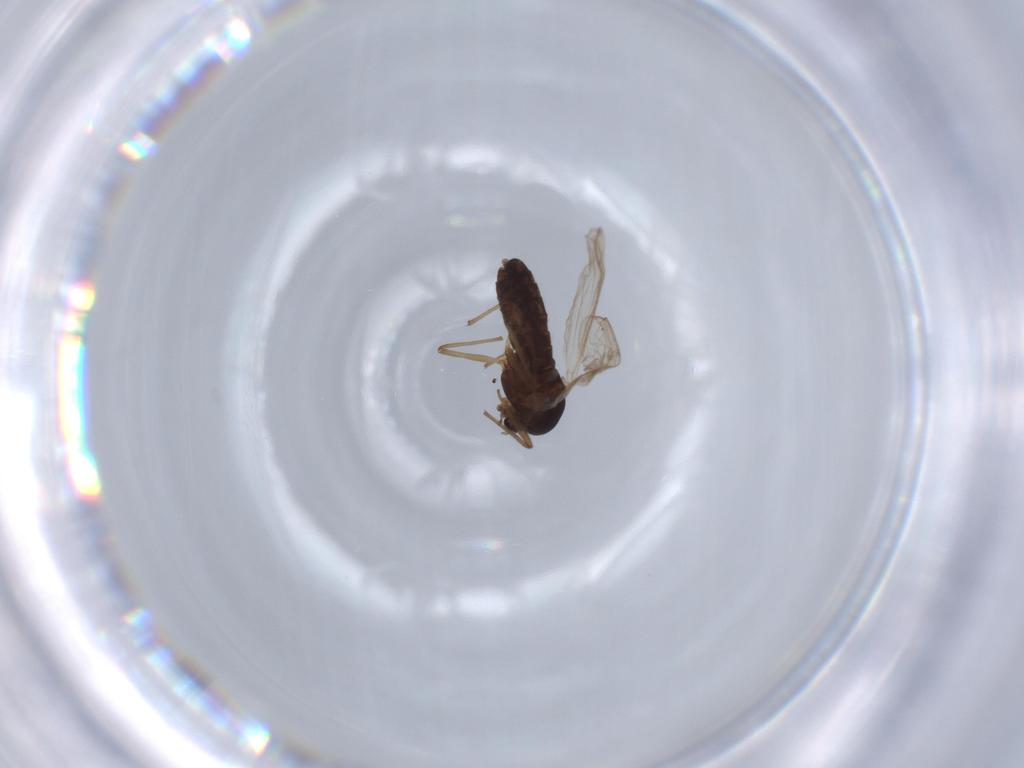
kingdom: Animalia
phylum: Arthropoda
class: Insecta
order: Diptera
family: Chironomidae
